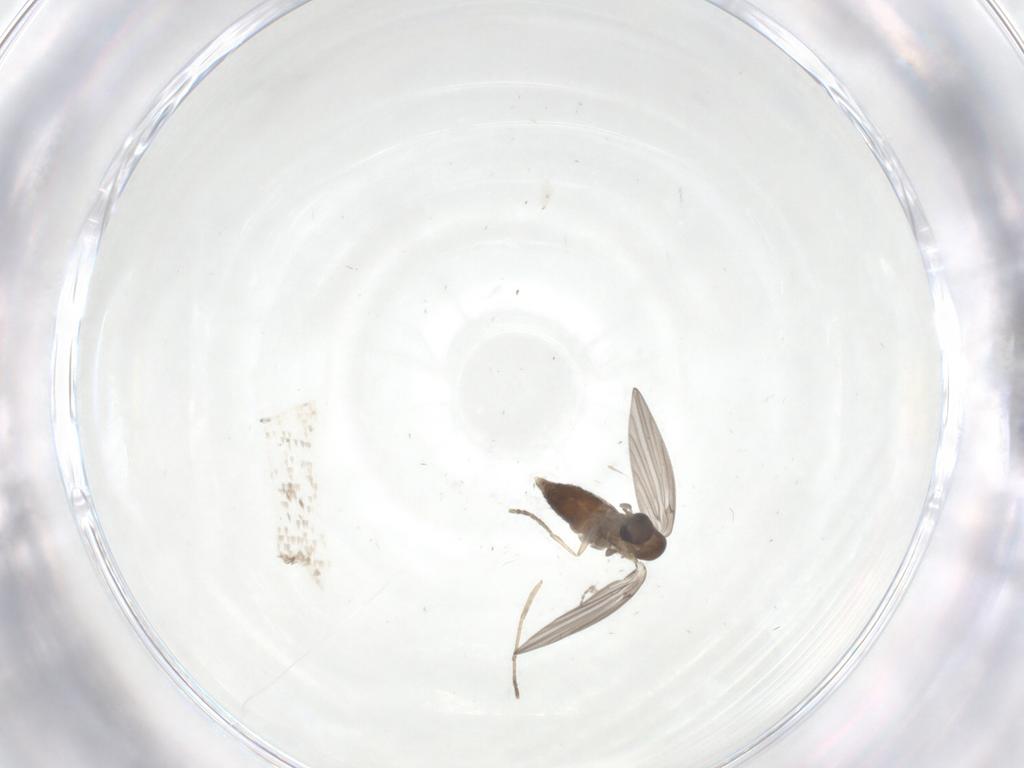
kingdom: Animalia
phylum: Arthropoda
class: Insecta
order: Diptera
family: Psychodidae
